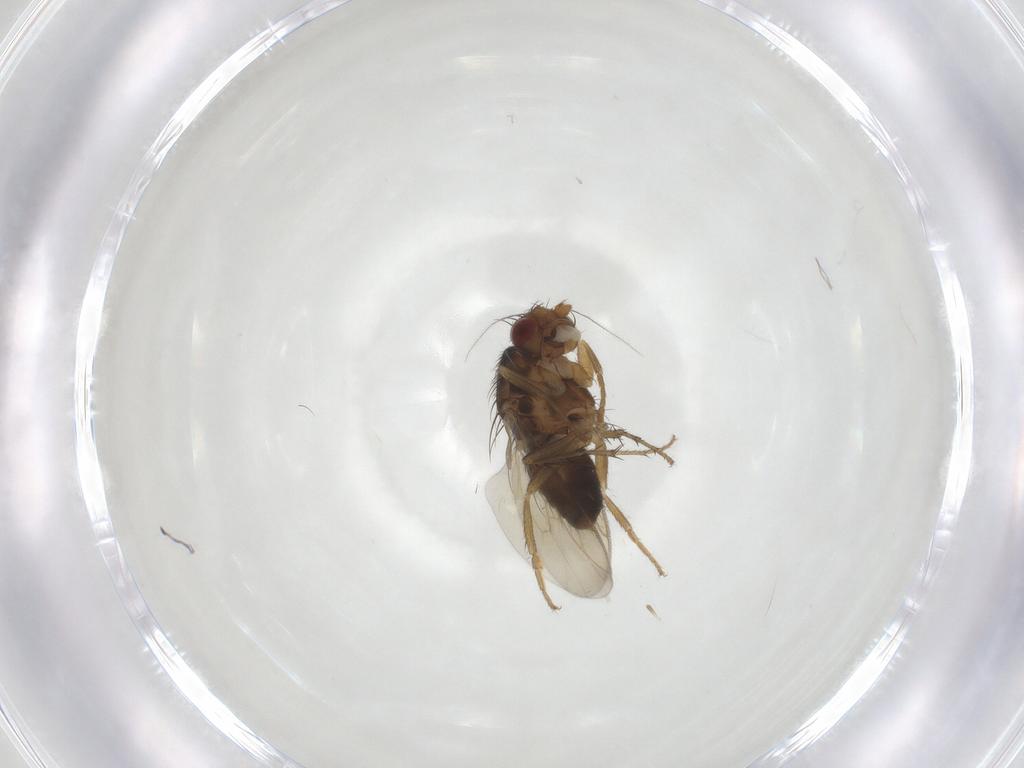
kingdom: Animalia
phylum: Arthropoda
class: Insecta
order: Diptera
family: Sphaeroceridae
